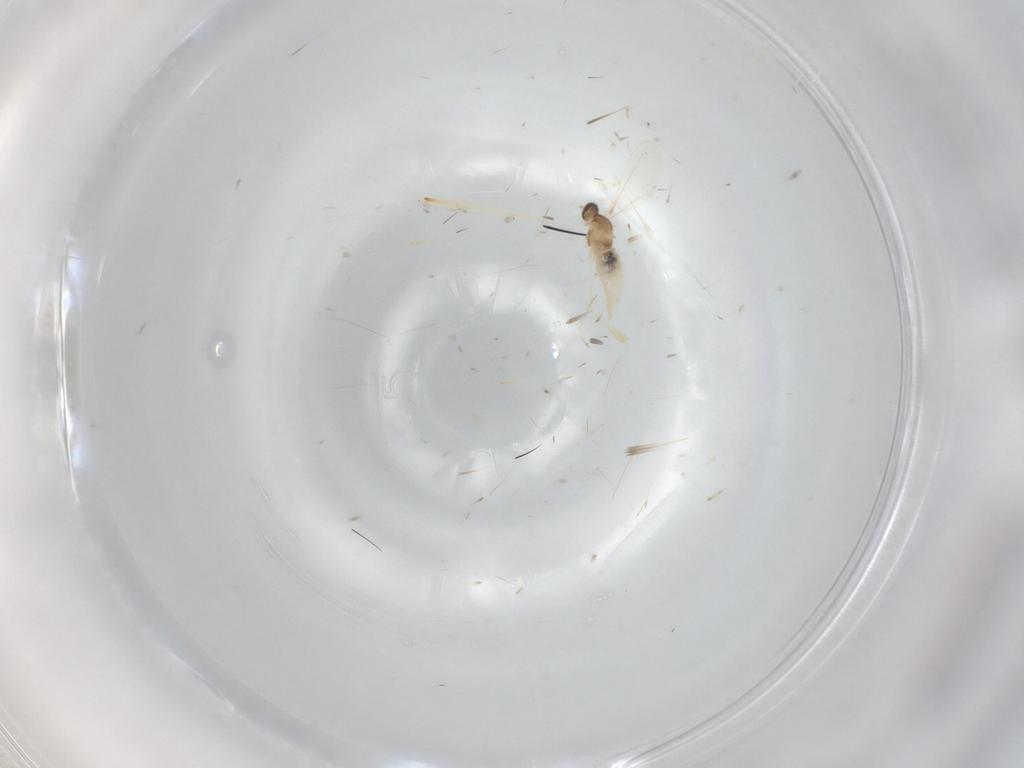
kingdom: Animalia
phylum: Arthropoda
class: Insecta
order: Diptera
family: Cecidomyiidae
